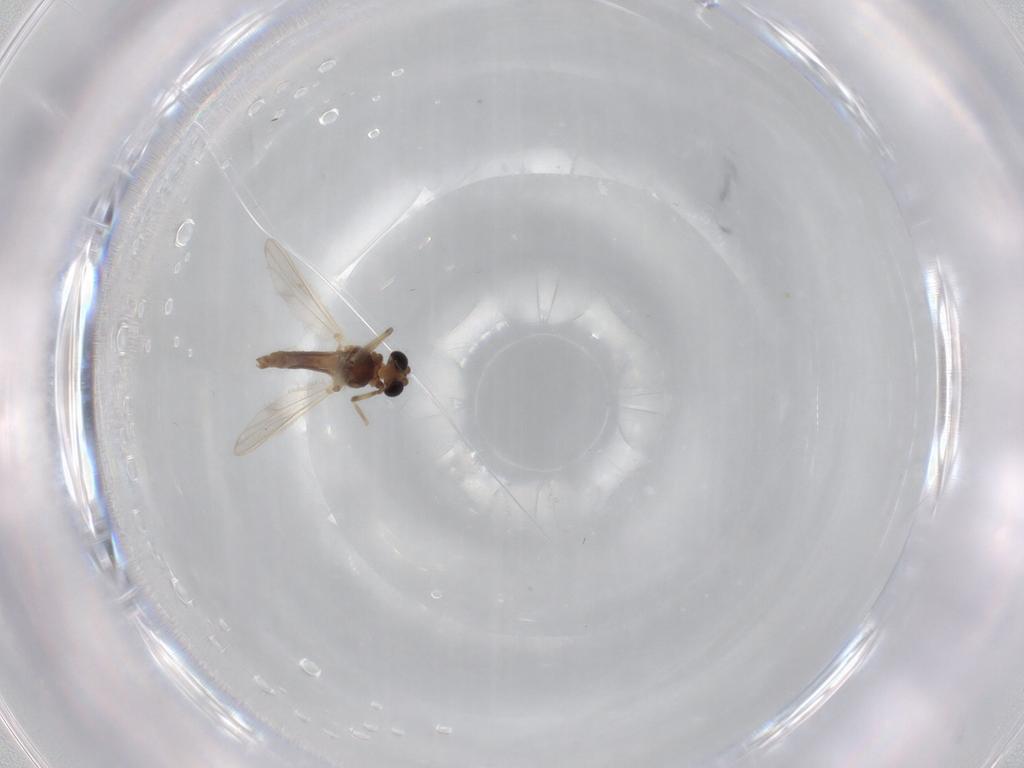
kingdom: Animalia
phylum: Arthropoda
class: Insecta
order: Diptera
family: Chironomidae
